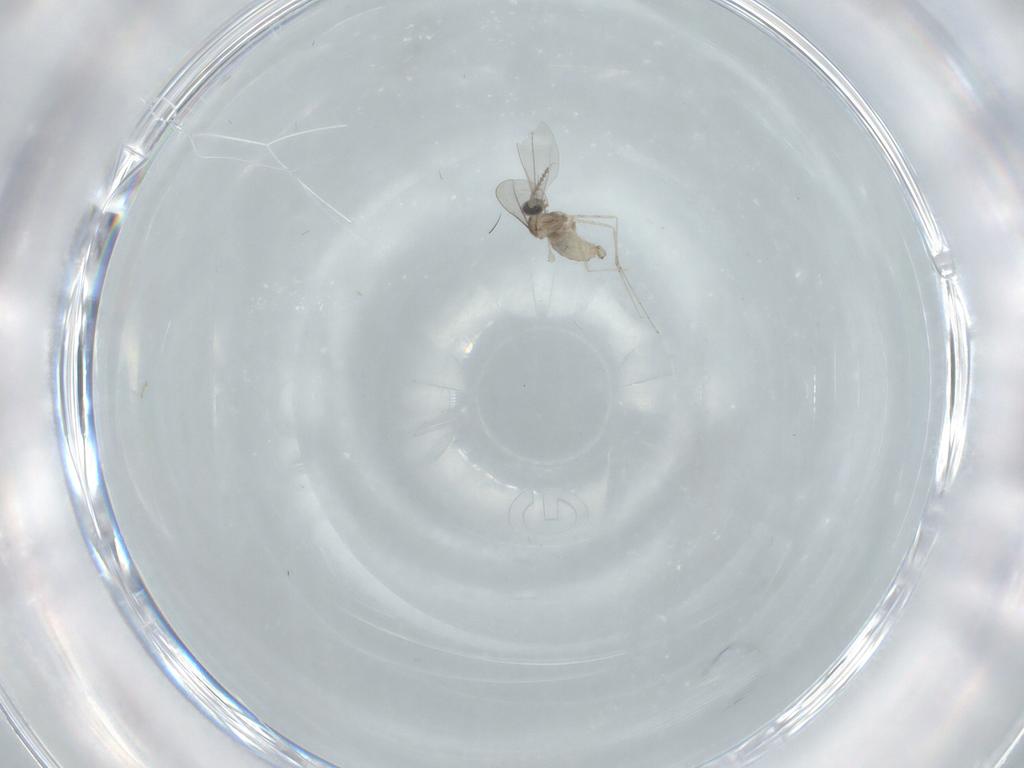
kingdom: Animalia
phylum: Arthropoda
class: Insecta
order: Diptera
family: Cecidomyiidae
